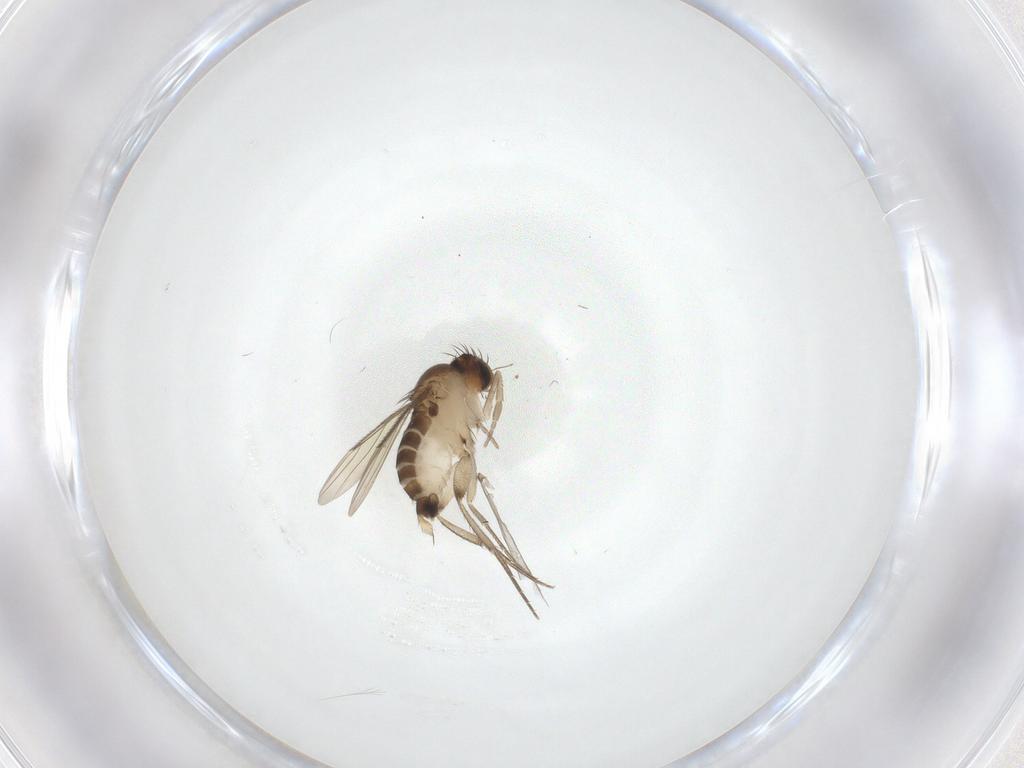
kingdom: Animalia
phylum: Arthropoda
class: Insecta
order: Diptera
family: Phoridae
